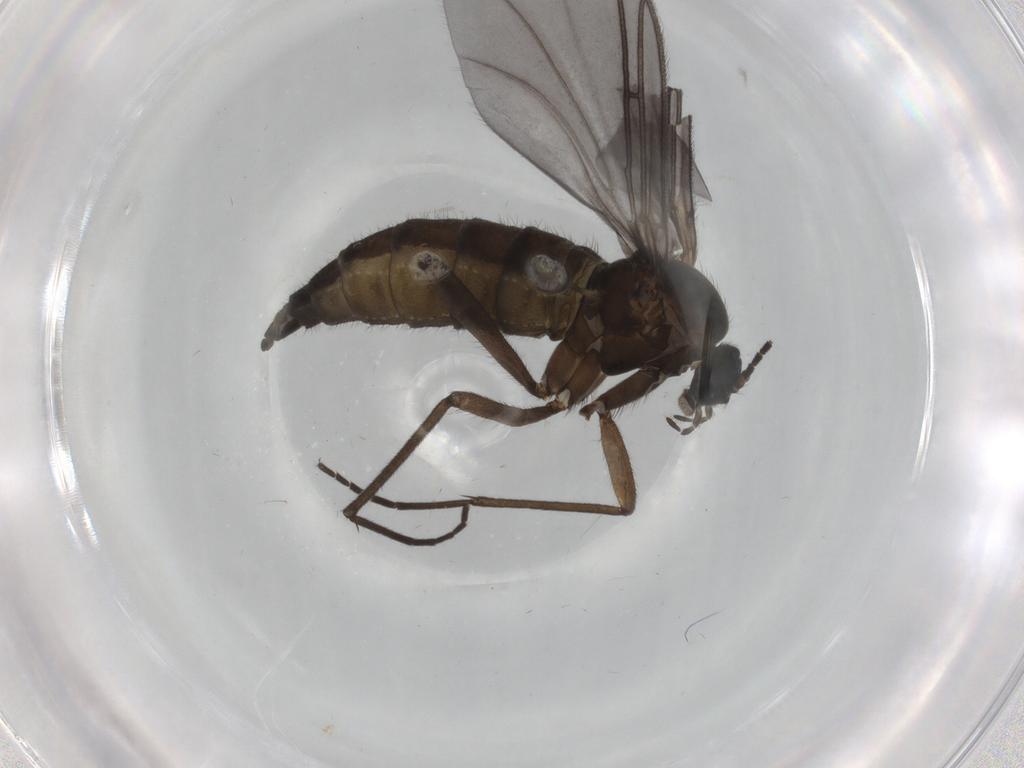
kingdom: Animalia
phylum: Arthropoda
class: Insecta
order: Diptera
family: Sciaridae
